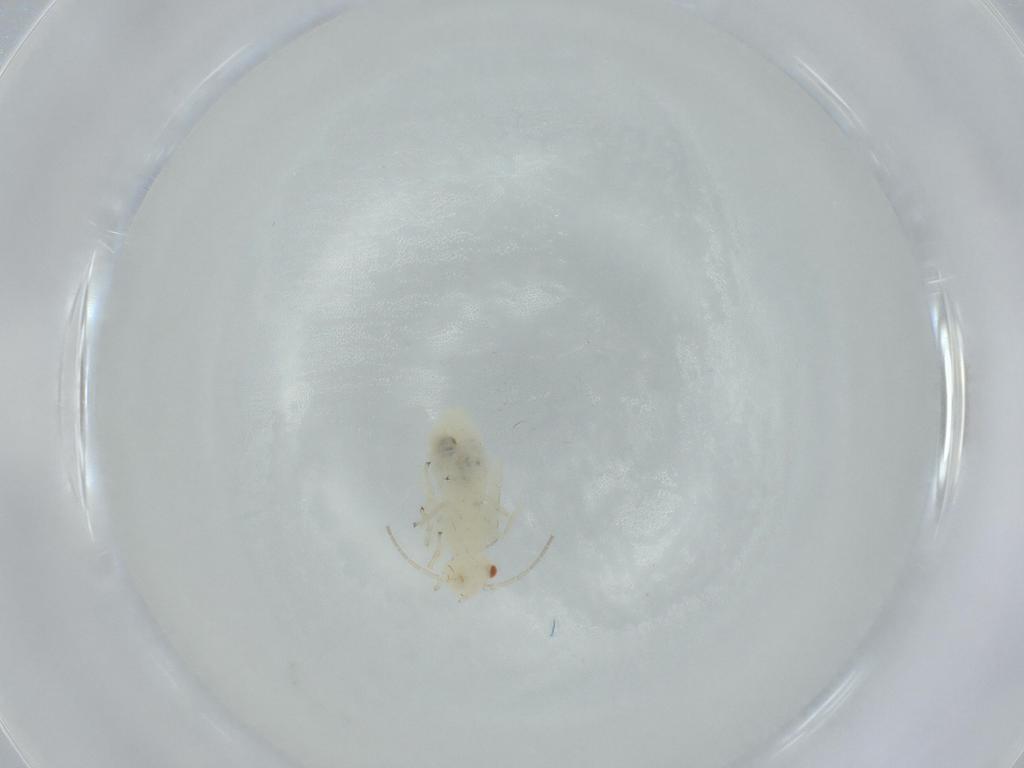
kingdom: Animalia
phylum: Arthropoda
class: Insecta
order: Psocodea
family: Caeciliusidae
